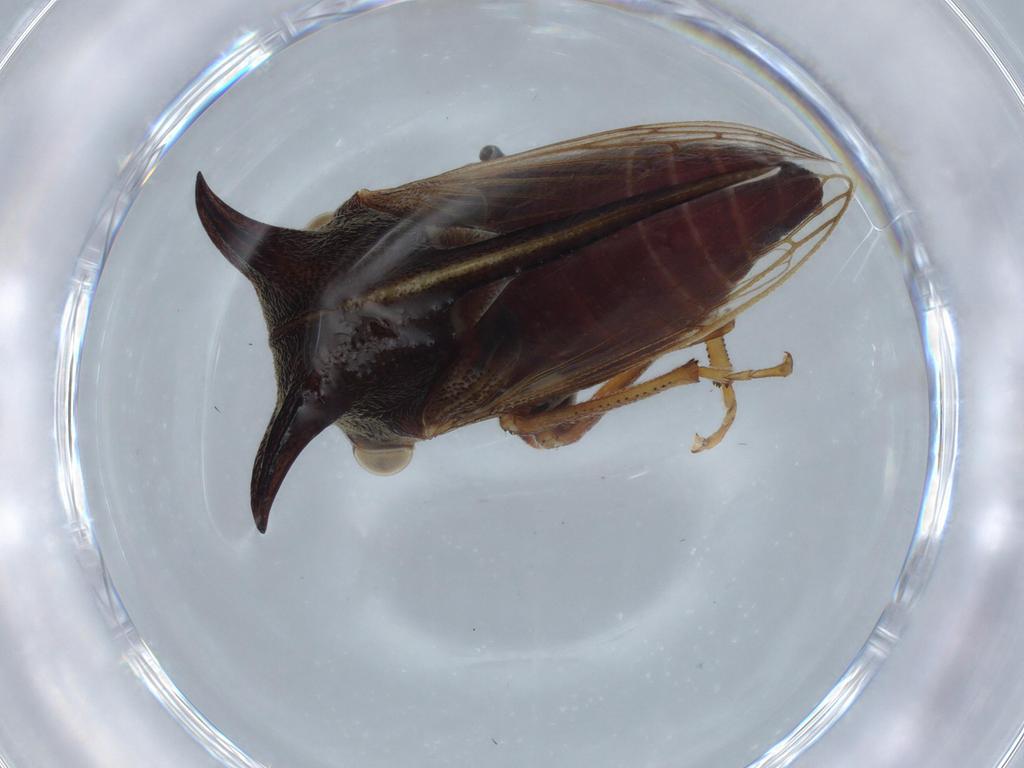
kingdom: Animalia
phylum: Arthropoda
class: Insecta
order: Hemiptera
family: Membracidae
